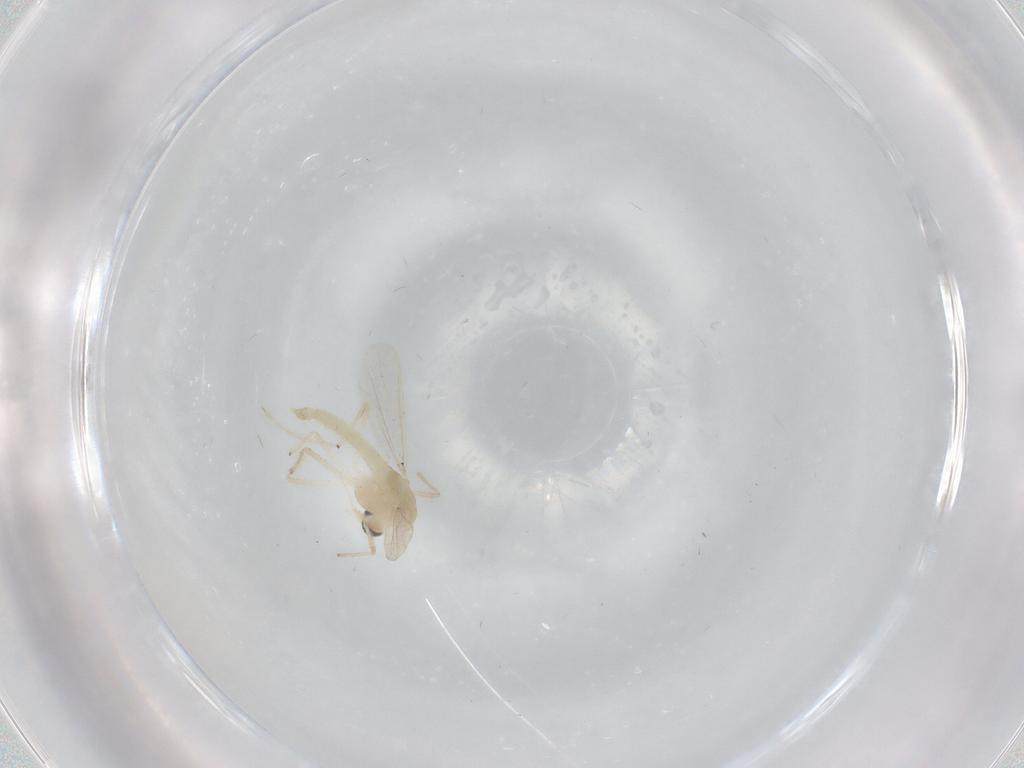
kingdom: Animalia
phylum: Arthropoda
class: Insecta
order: Diptera
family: Chironomidae
